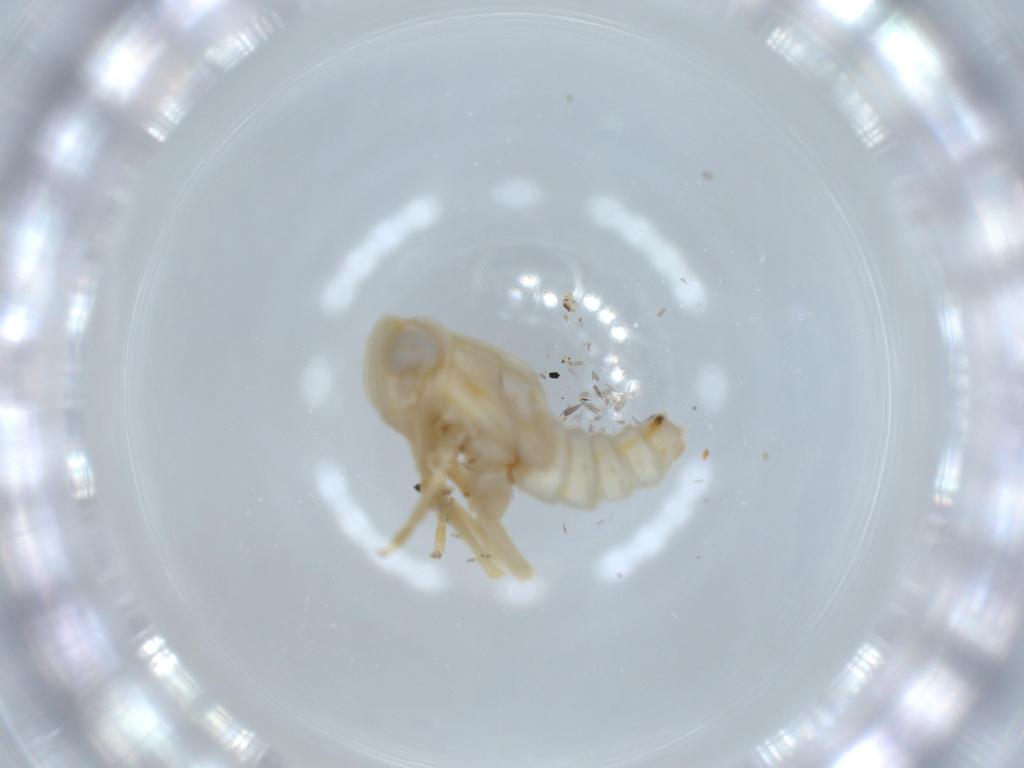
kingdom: Animalia
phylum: Arthropoda
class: Insecta
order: Hemiptera
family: Nogodinidae
